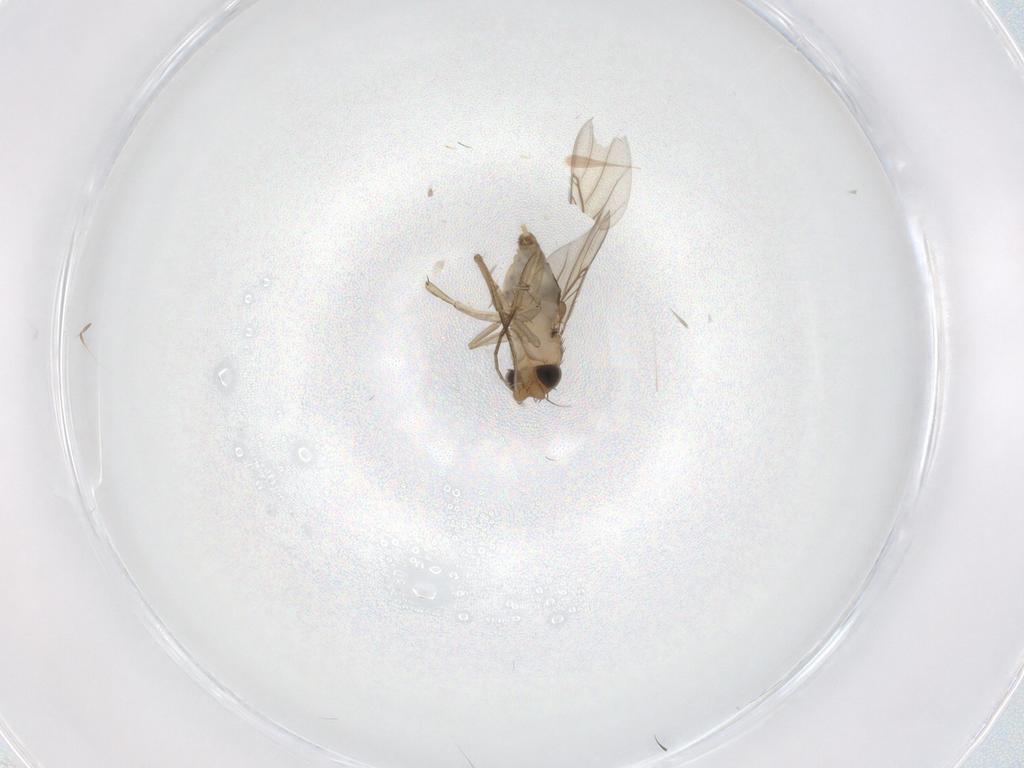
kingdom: Animalia
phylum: Arthropoda
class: Insecta
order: Diptera
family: Phoridae
